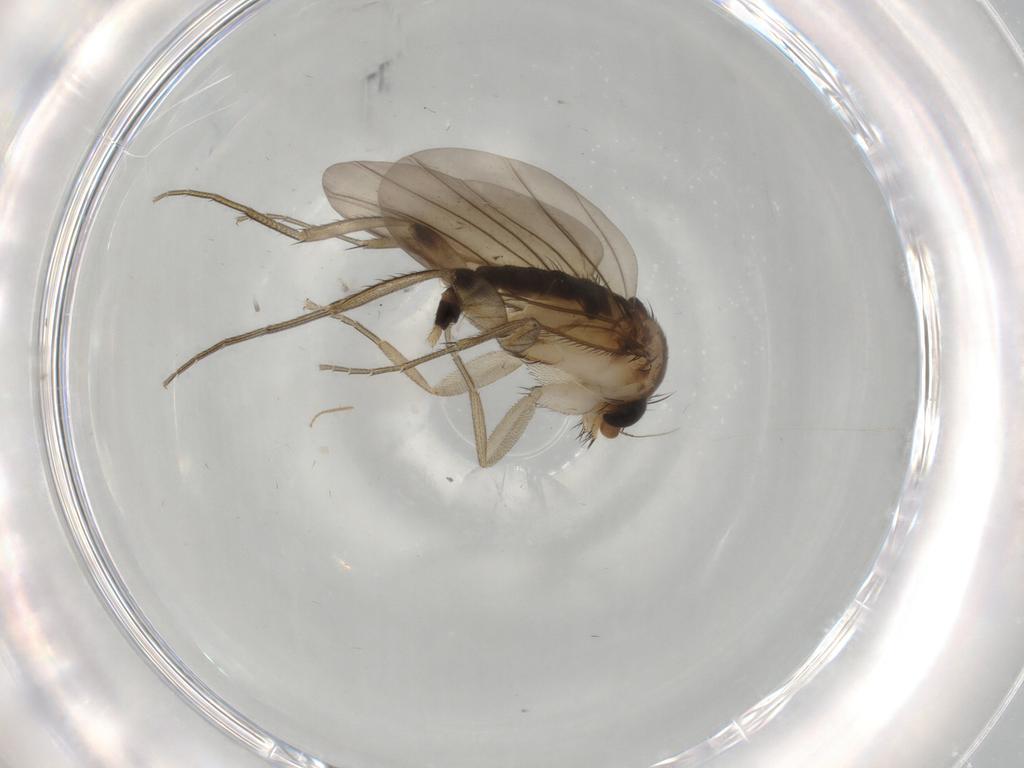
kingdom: Animalia
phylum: Arthropoda
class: Insecta
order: Diptera
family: Phoridae
